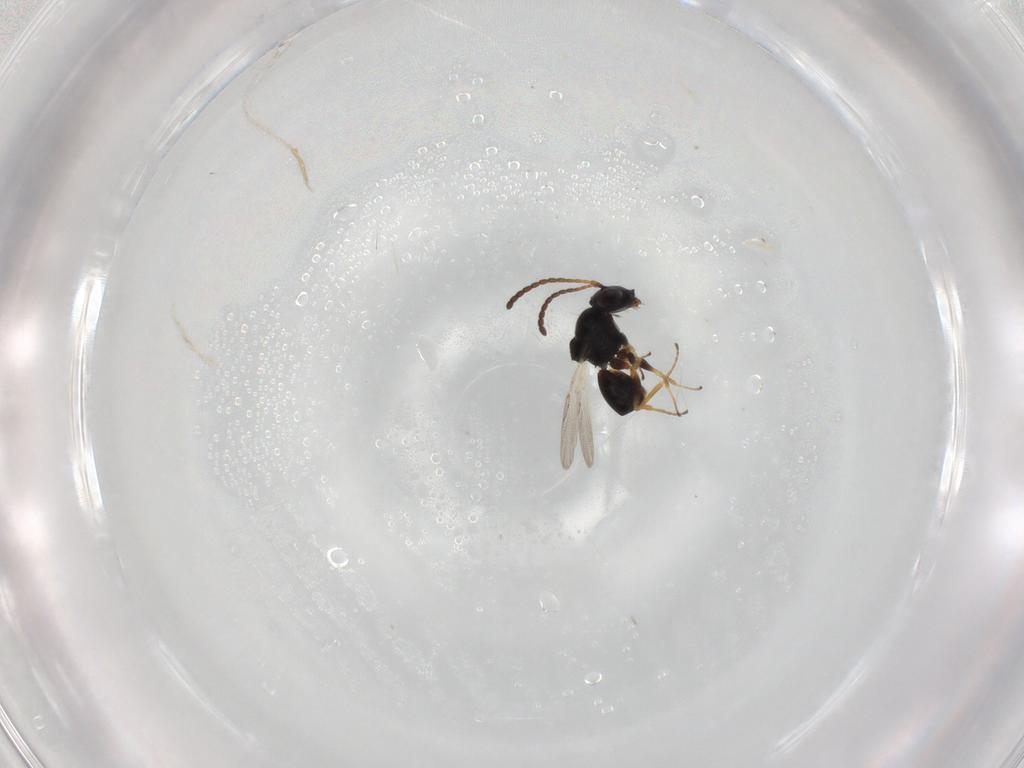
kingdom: Animalia
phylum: Arthropoda
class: Insecta
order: Hymenoptera
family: Figitidae
